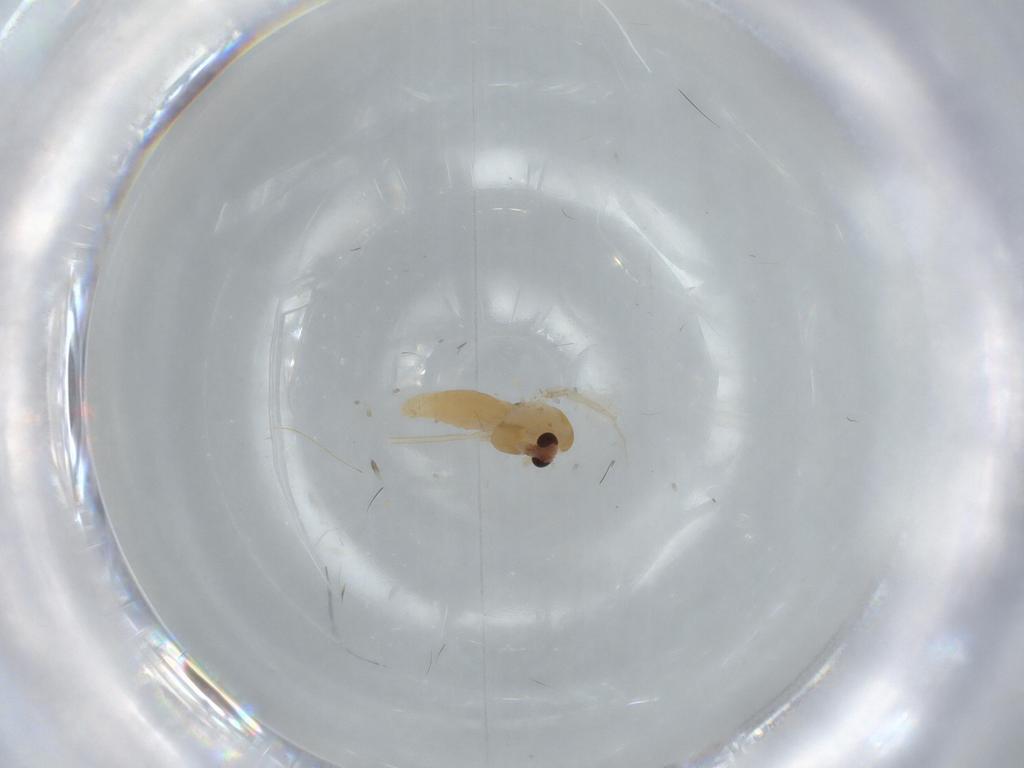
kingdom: Animalia
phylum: Arthropoda
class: Insecta
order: Diptera
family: Chironomidae
